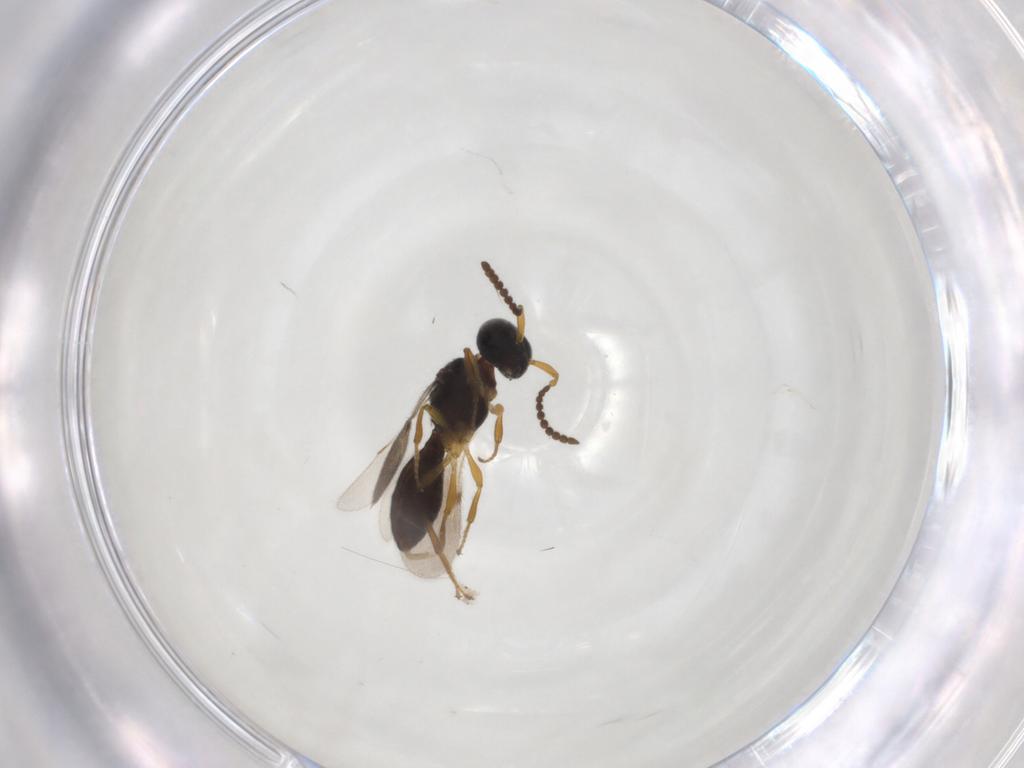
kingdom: Animalia
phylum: Arthropoda
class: Insecta
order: Hymenoptera
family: Scelionidae
